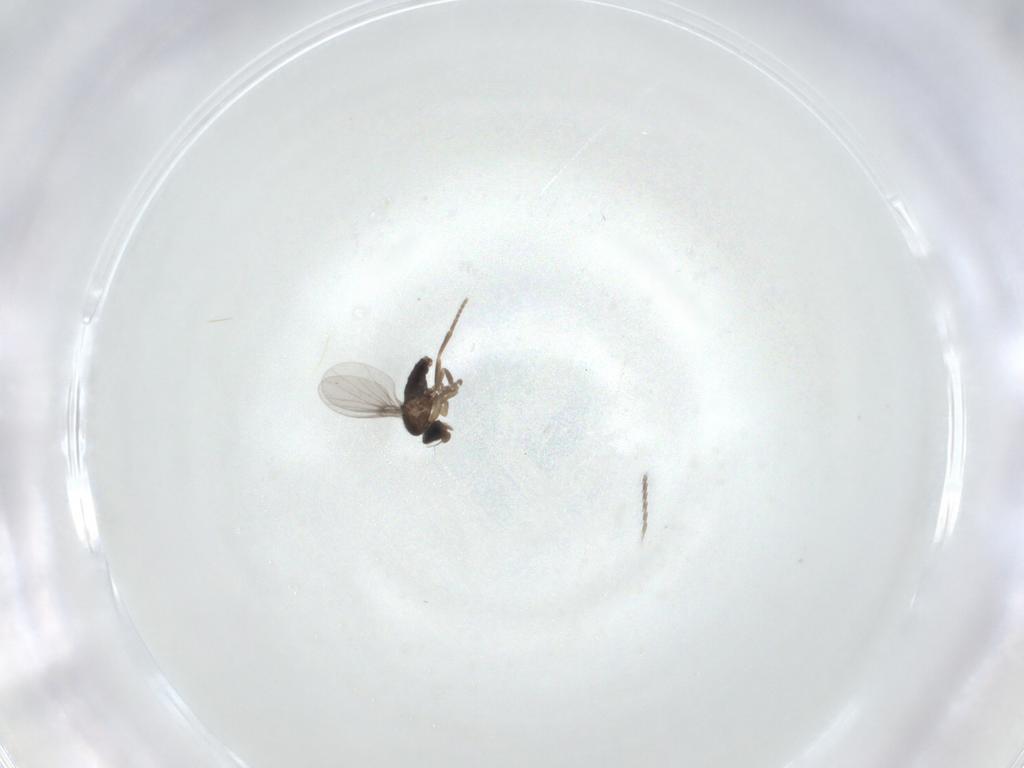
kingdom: Animalia
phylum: Arthropoda
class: Insecta
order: Diptera
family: Cecidomyiidae
